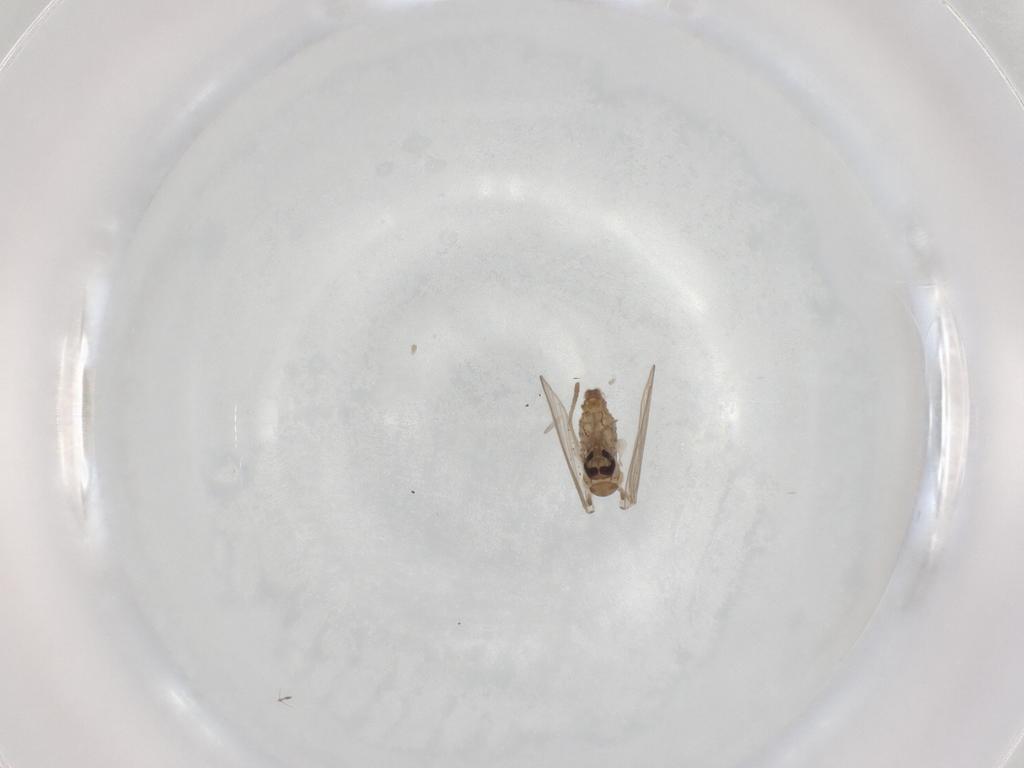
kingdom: Animalia
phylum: Arthropoda
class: Insecta
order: Diptera
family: Psychodidae
